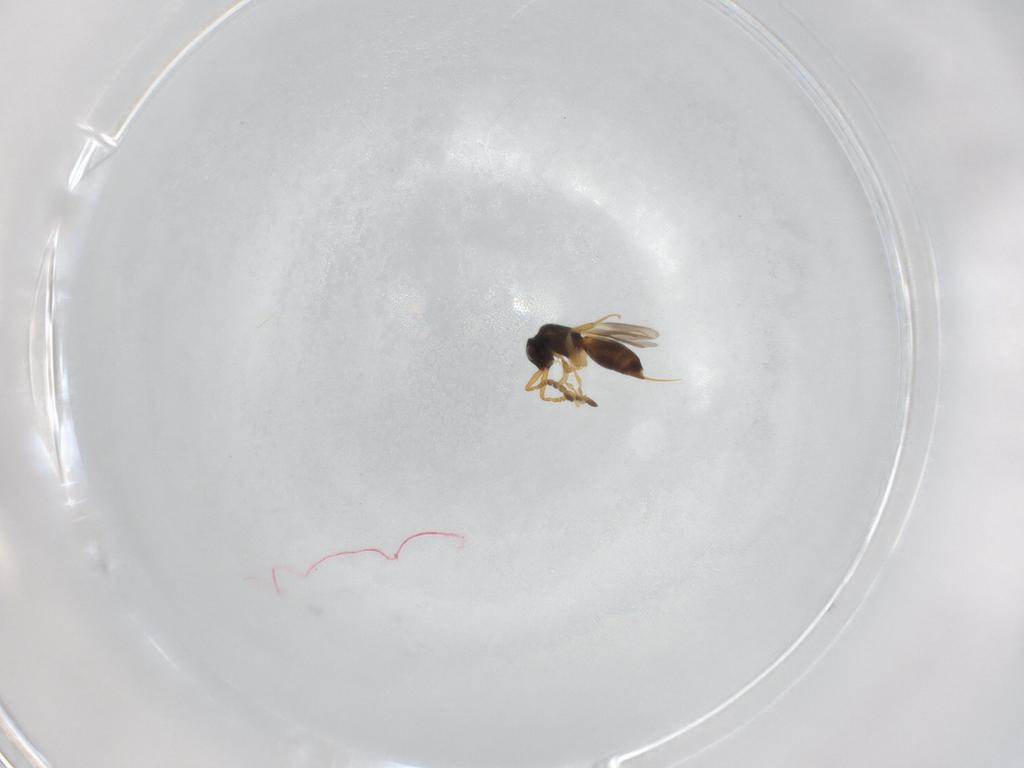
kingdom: Animalia
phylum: Arthropoda
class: Insecta
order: Hymenoptera
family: Ceraphronidae
